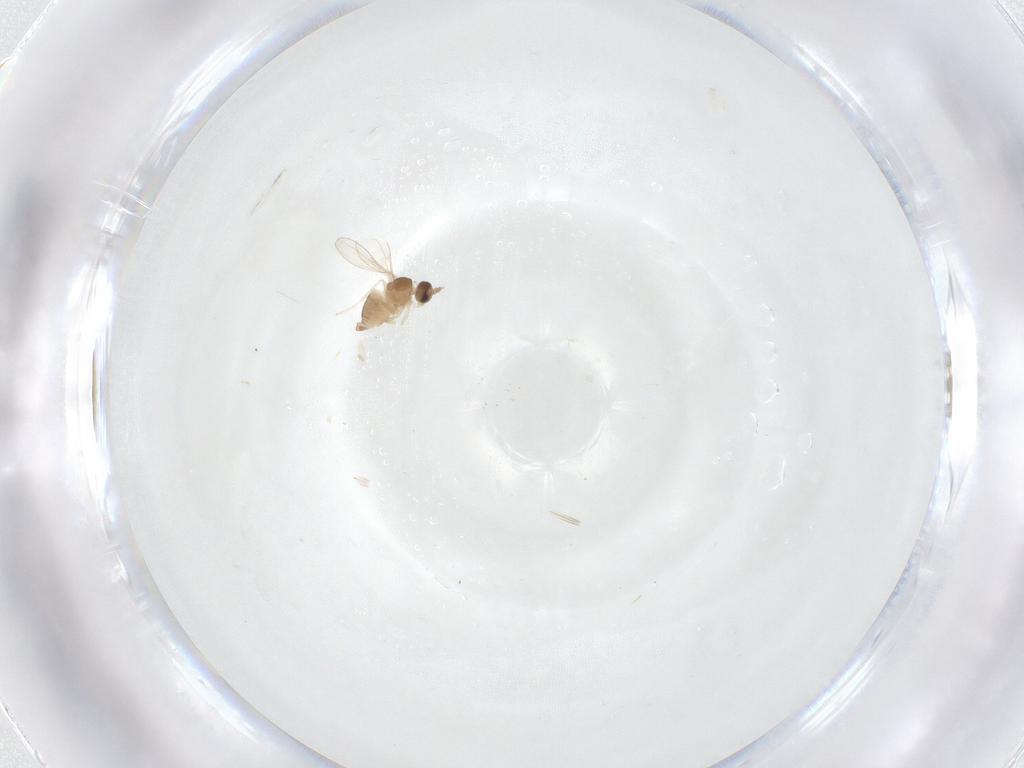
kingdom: Animalia
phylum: Arthropoda
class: Insecta
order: Diptera
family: Cecidomyiidae
